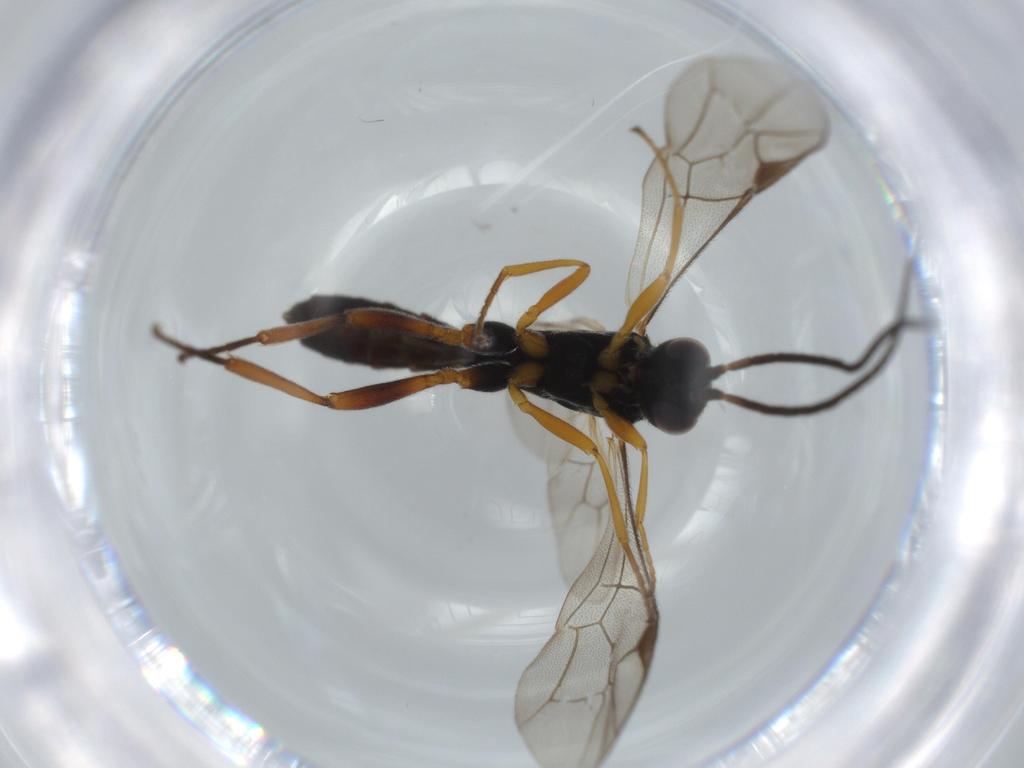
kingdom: Animalia
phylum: Arthropoda
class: Insecta
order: Hymenoptera
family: Ichneumonidae
